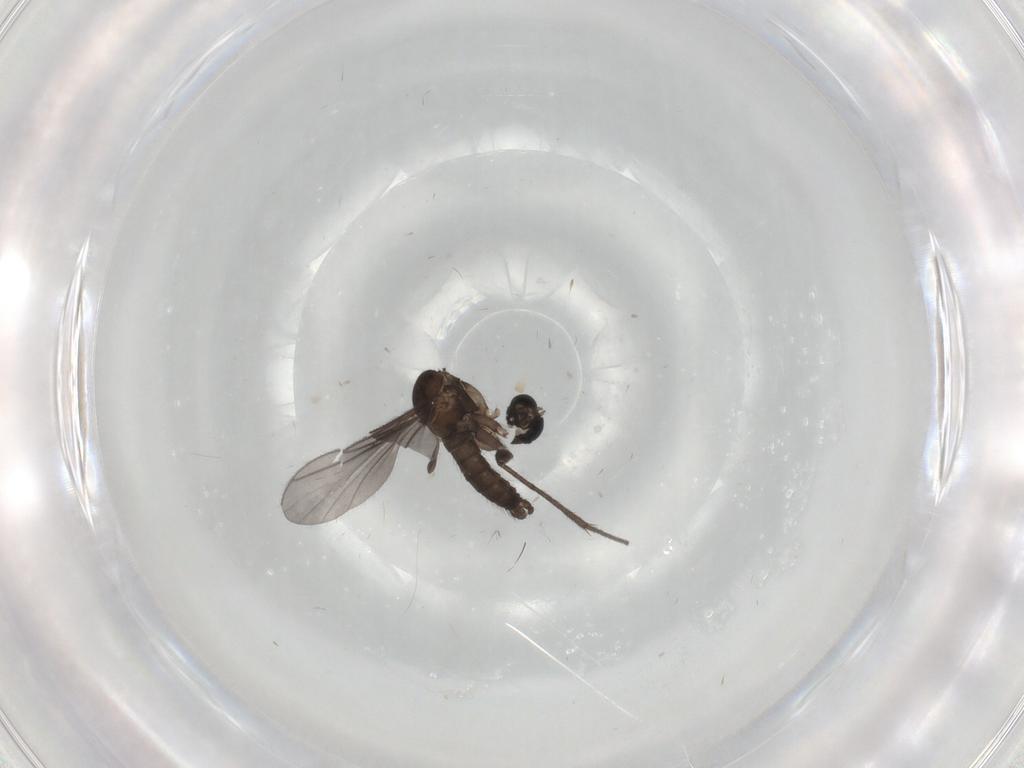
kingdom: Animalia
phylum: Arthropoda
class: Insecta
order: Diptera
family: Sciaridae
